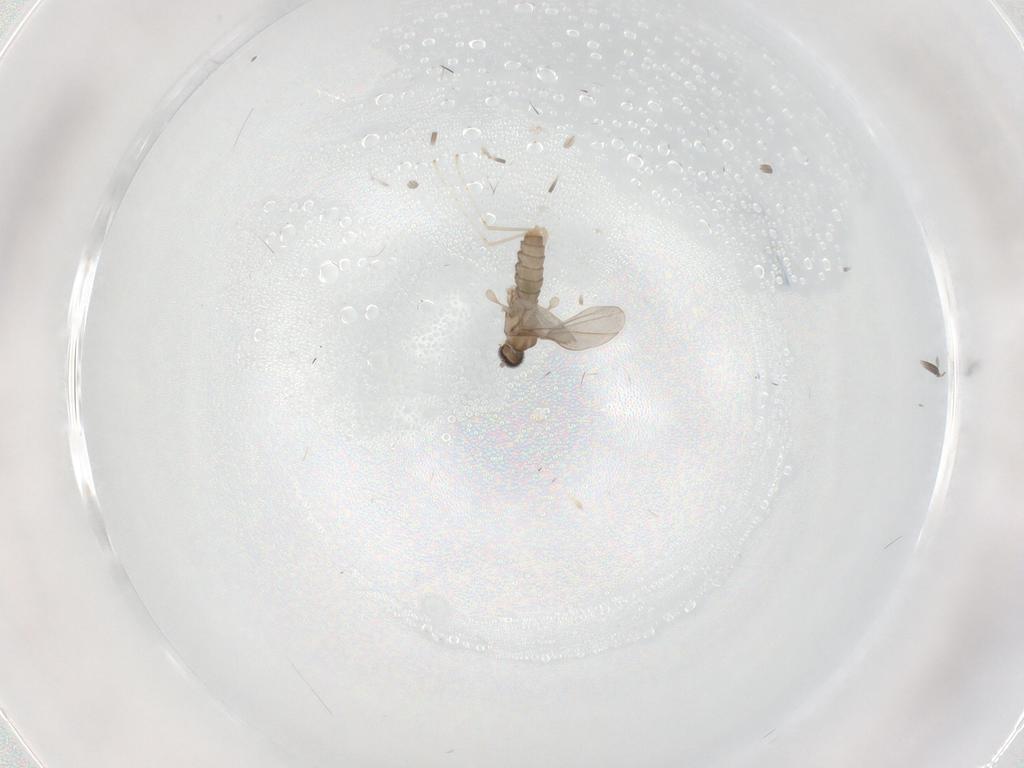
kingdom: Animalia
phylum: Arthropoda
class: Insecta
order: Diptera
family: Cecidomyiidae
